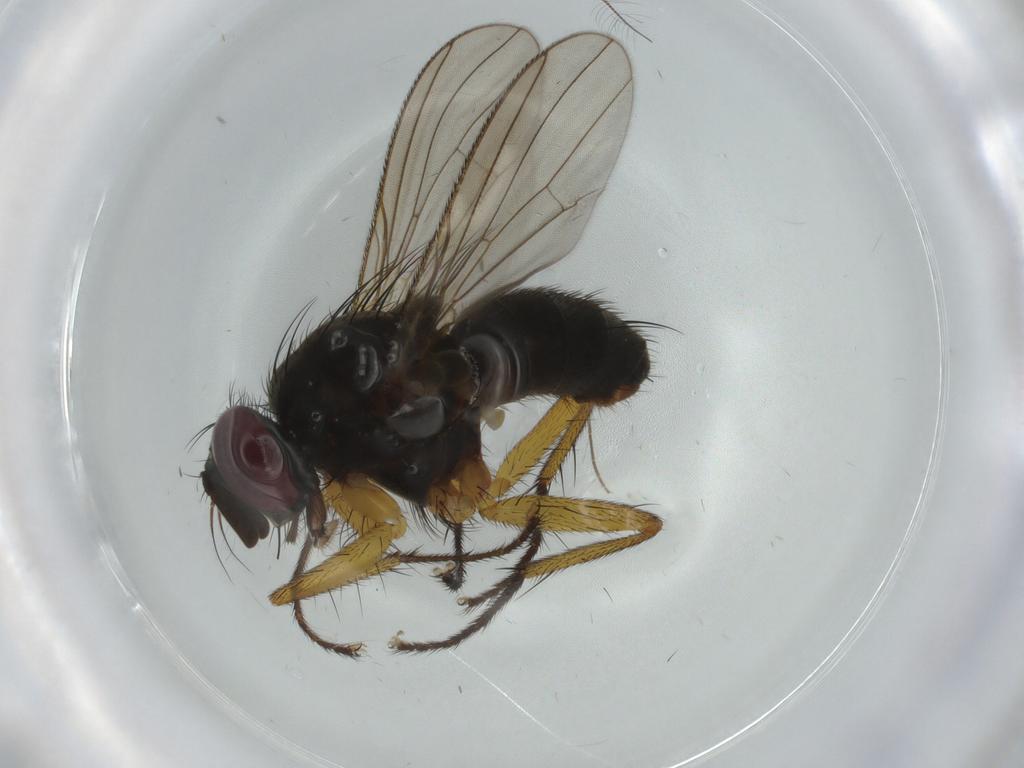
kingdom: Animalia
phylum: Arthropoda
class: Insecta
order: Diptera
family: Muscidae
